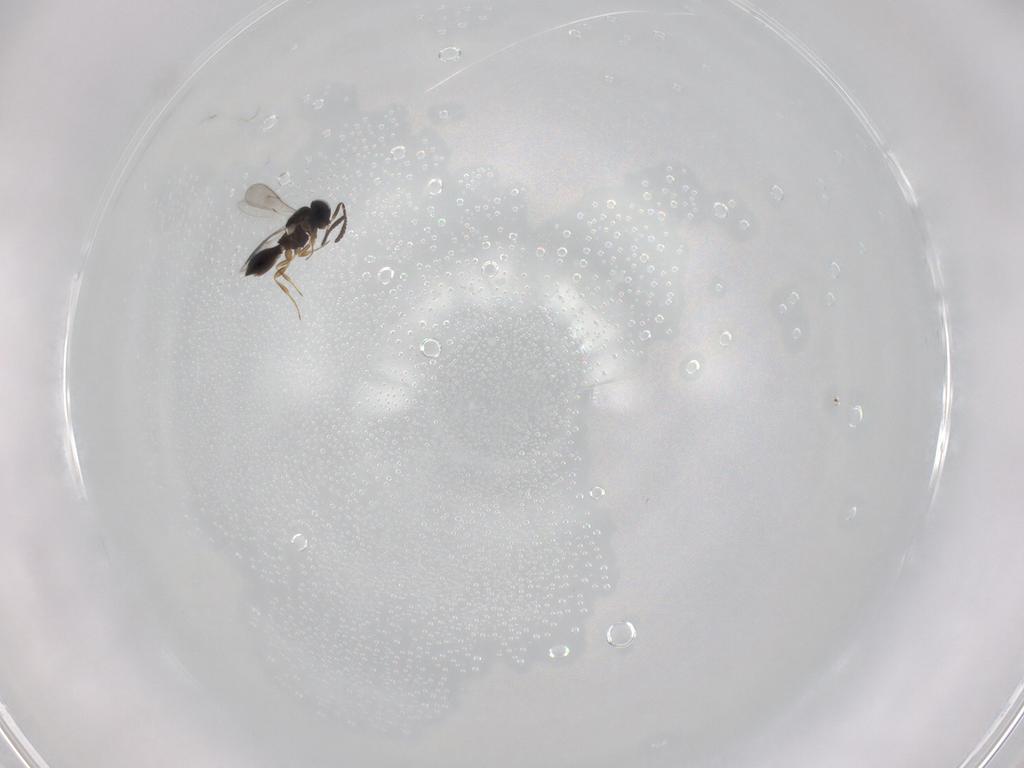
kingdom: Animalia
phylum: Arthropoda
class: Insecta
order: Hymenoptera
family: Scelionidae
